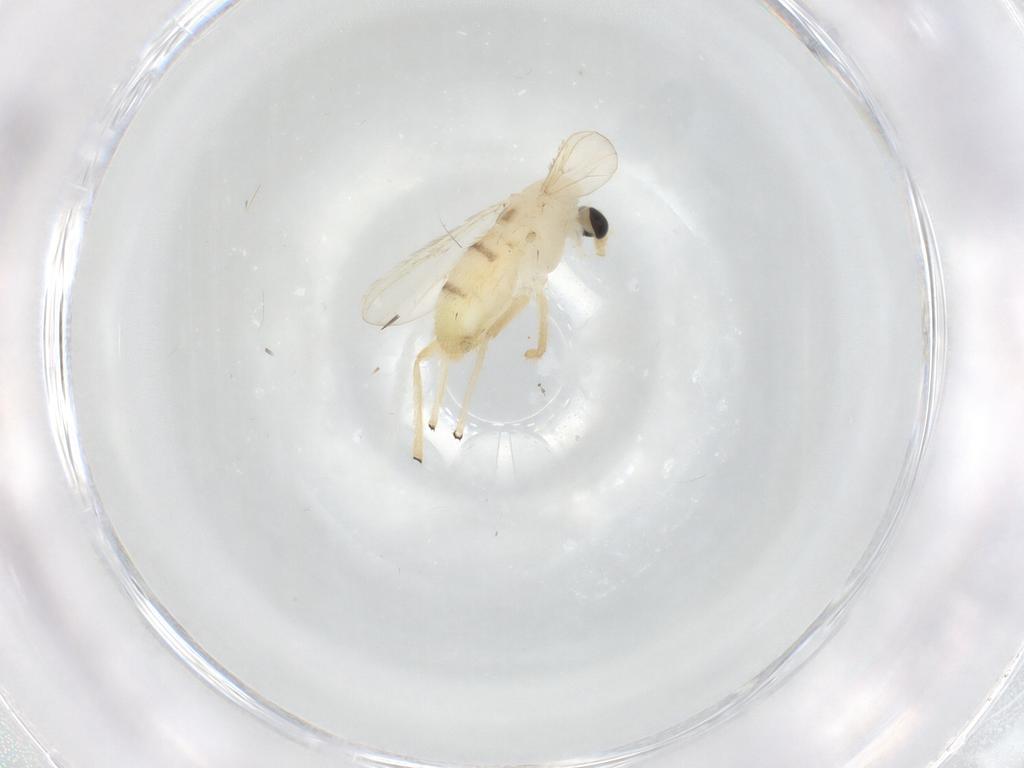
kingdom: Animalia
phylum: Arthropoda
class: Insecta
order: Diptera
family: Chironomidae
